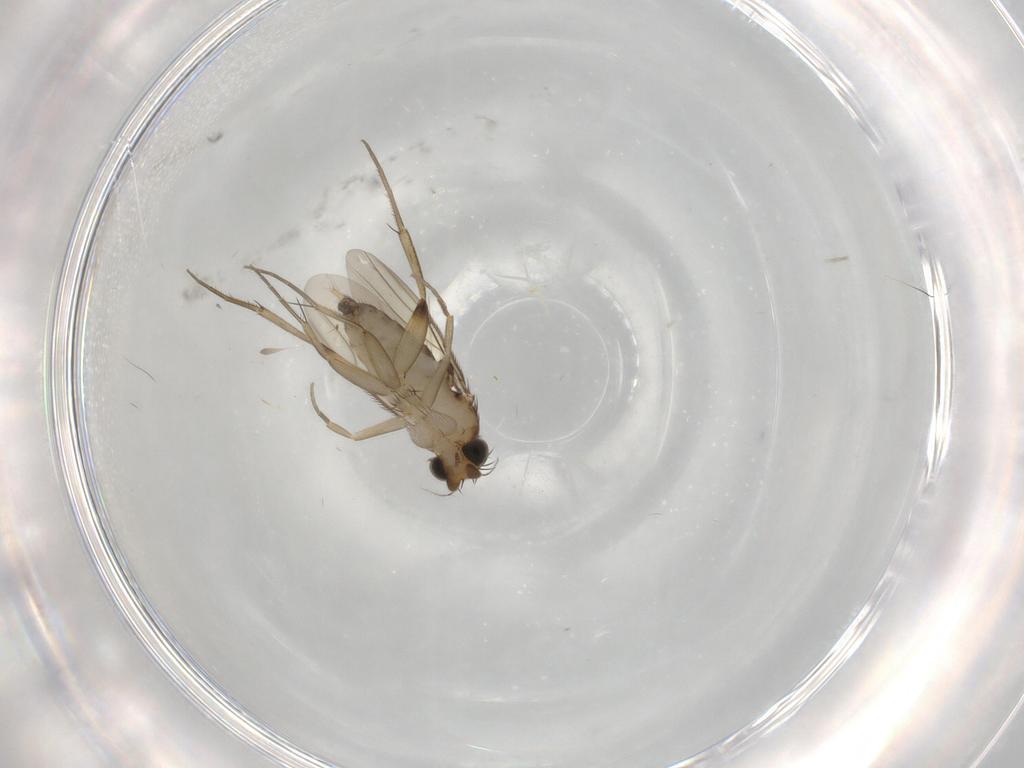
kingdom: Animalia
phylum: Arthropoda
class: Insecta
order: Diptera
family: Phoridae
